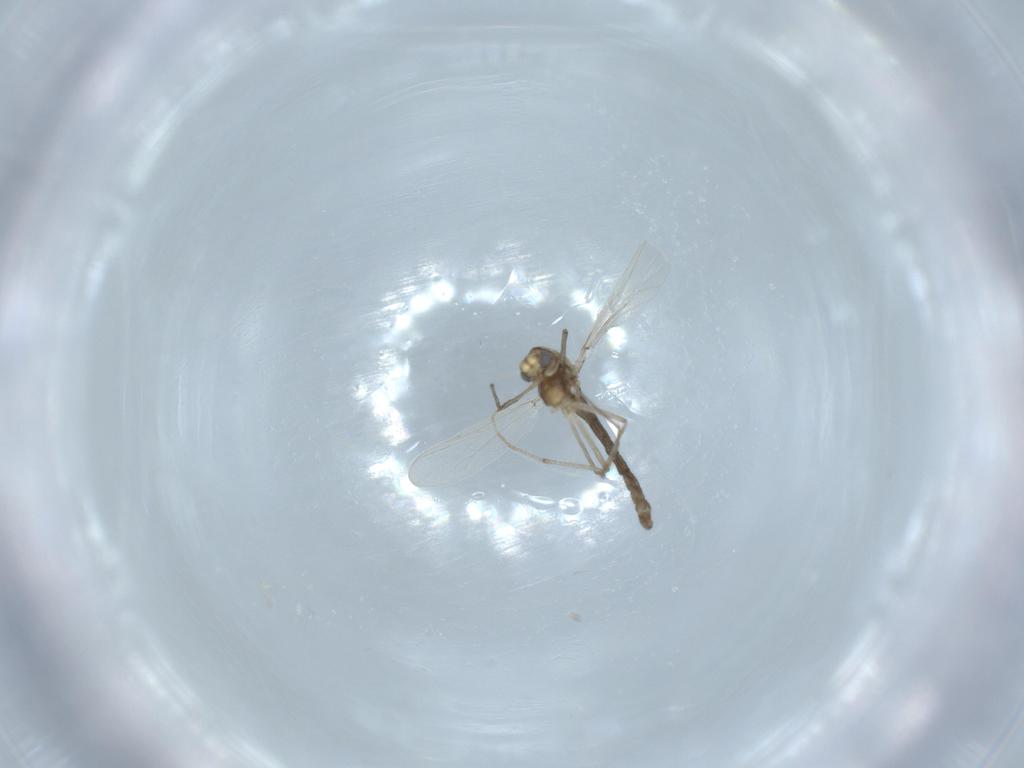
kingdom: Animalia
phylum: Arthropoda
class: Insecta
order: Diptera
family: Chironomidae
